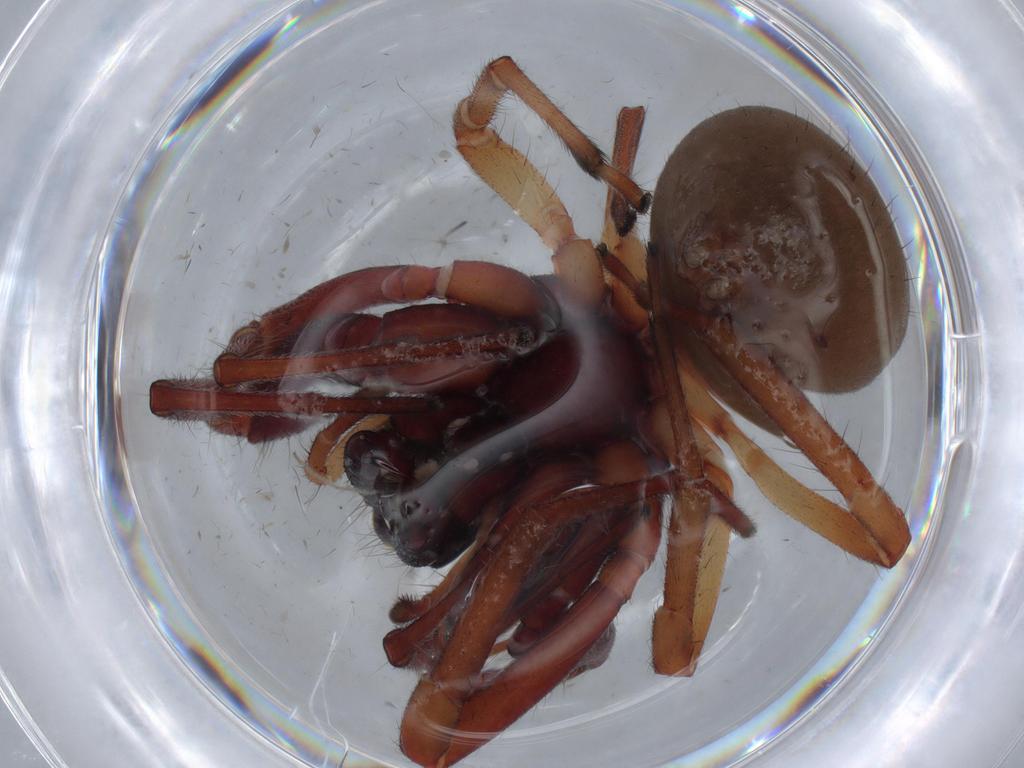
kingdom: Animalia
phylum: Arthropoda
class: Arachnida
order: Araneae
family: Trachelidae
